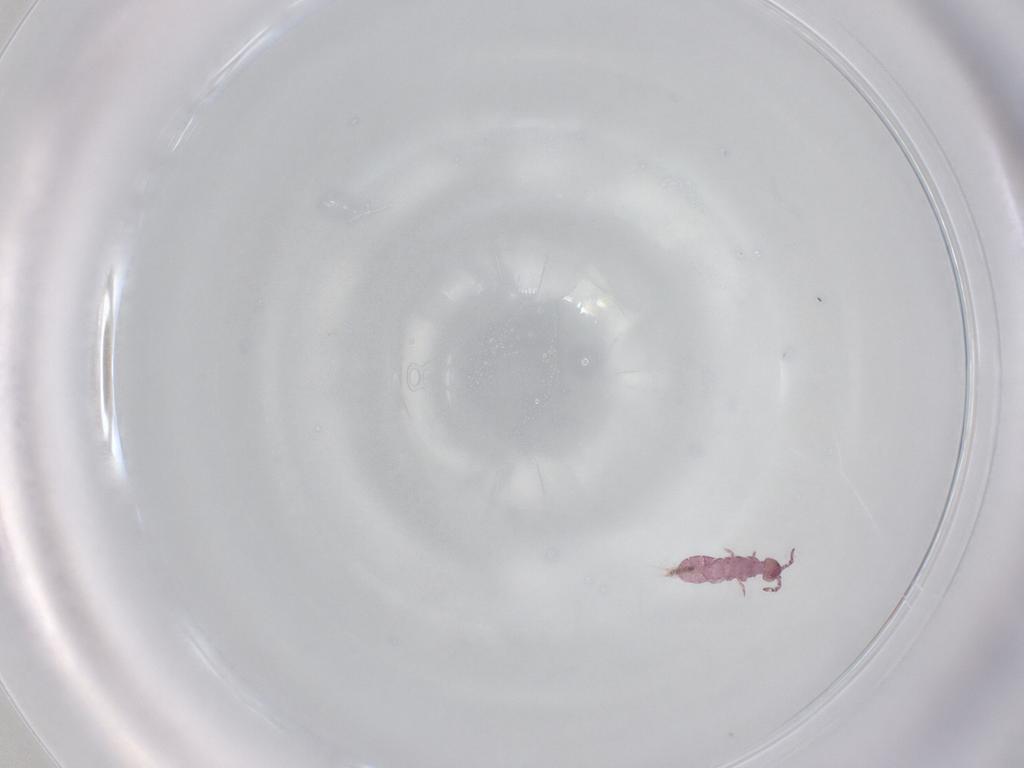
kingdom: Animalia
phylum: Arthropoda
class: Collembola
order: Entomobryomorpha
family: Isotomidae
